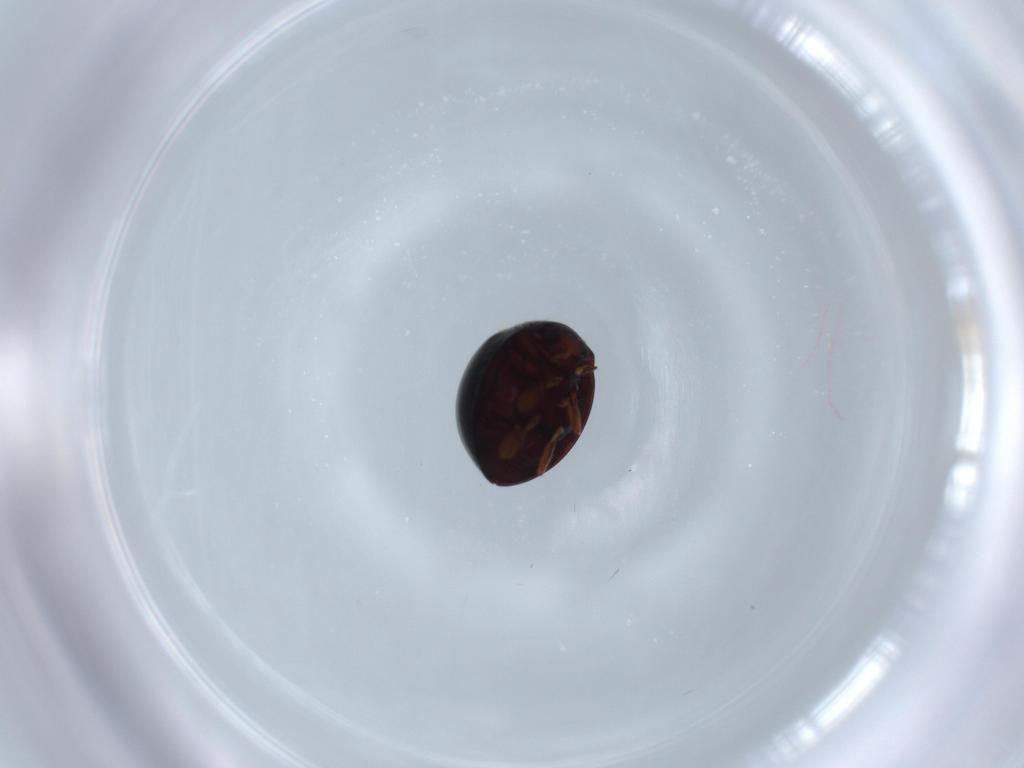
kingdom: Animalia
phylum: Arthropoda
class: Insecta
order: Coleoptera
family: Coccinellidae
